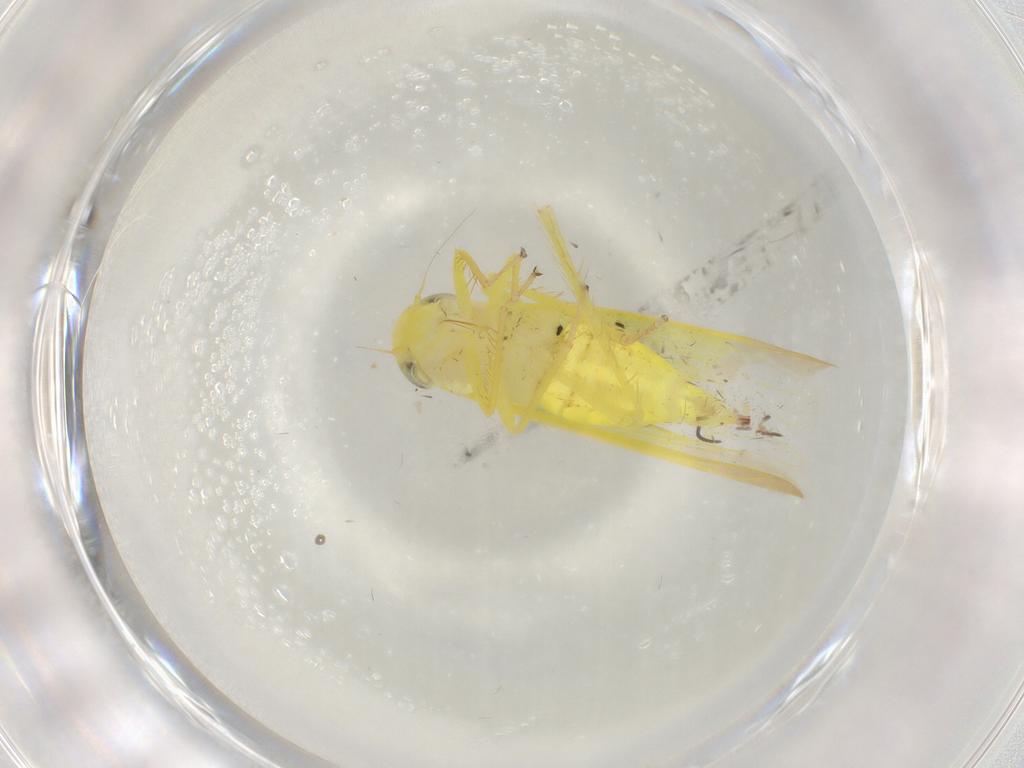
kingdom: Animalia
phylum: Arthropoda
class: Insecta
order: Hemiptera
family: Cicadellidae
